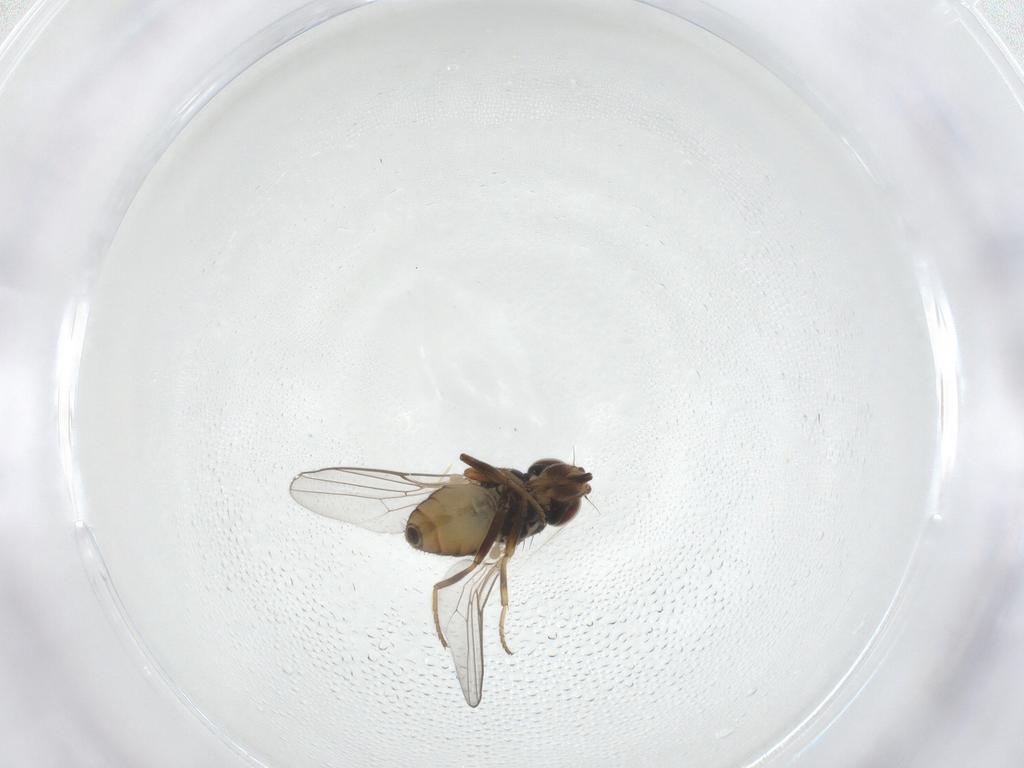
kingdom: Animalia
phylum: Arthropoda
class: Insecta
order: Diptera
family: Chloropidae
